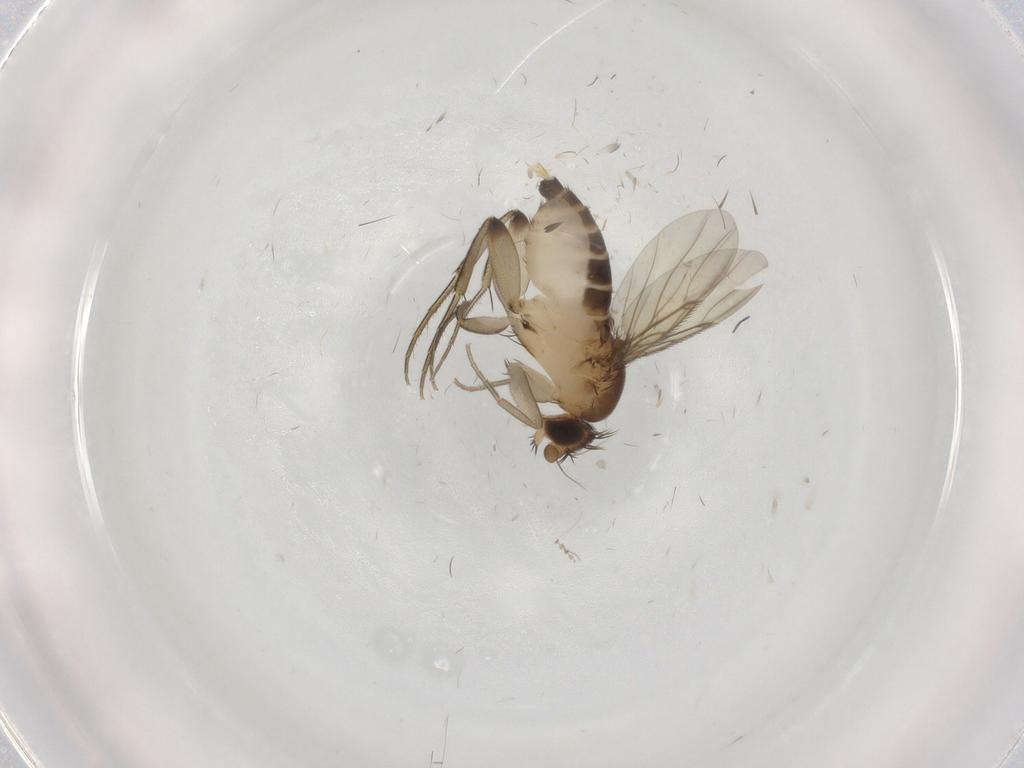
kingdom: Animalia
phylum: Arthropoda
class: Insecta
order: Diptera
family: Chironomidae
